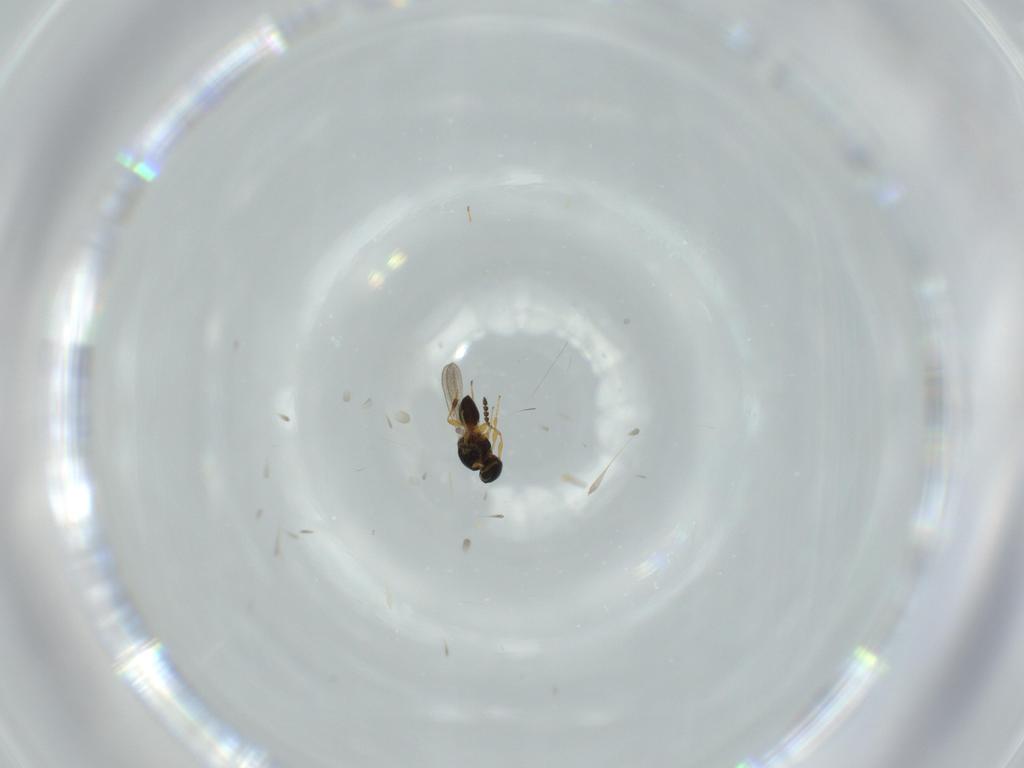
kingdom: Animalia
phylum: Arthropoda
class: Insecta
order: Hymenoptera
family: Platygastridae
